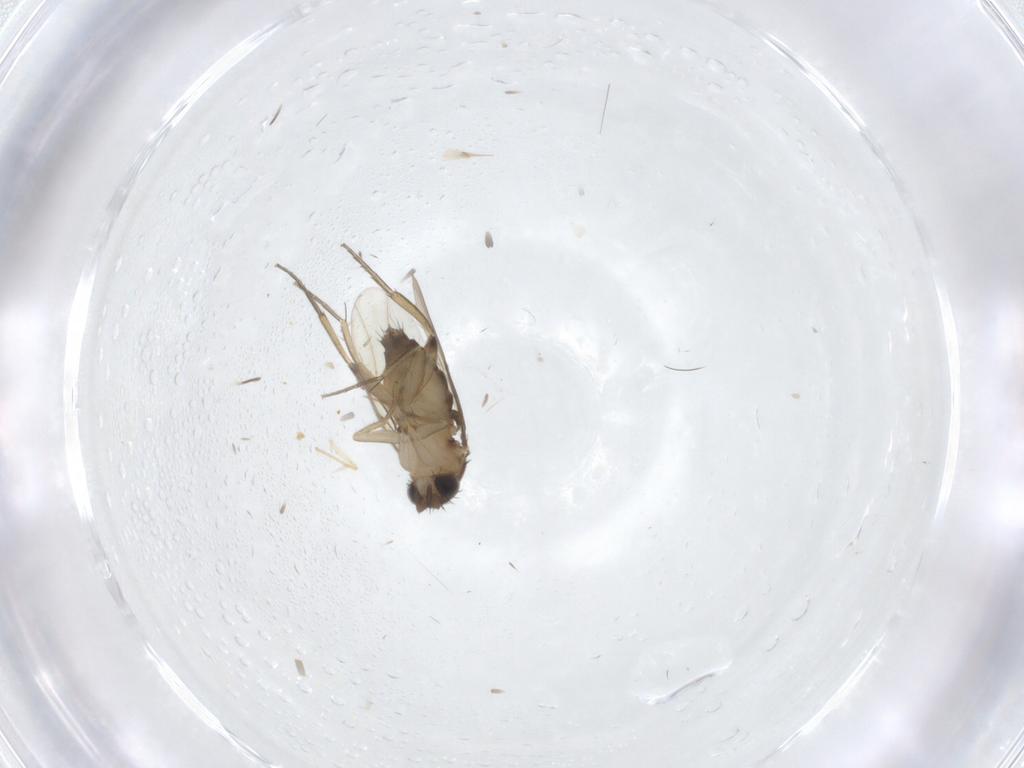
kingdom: Animalia
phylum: Arthropoda
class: Insecta
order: Diptera
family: Phoridae
